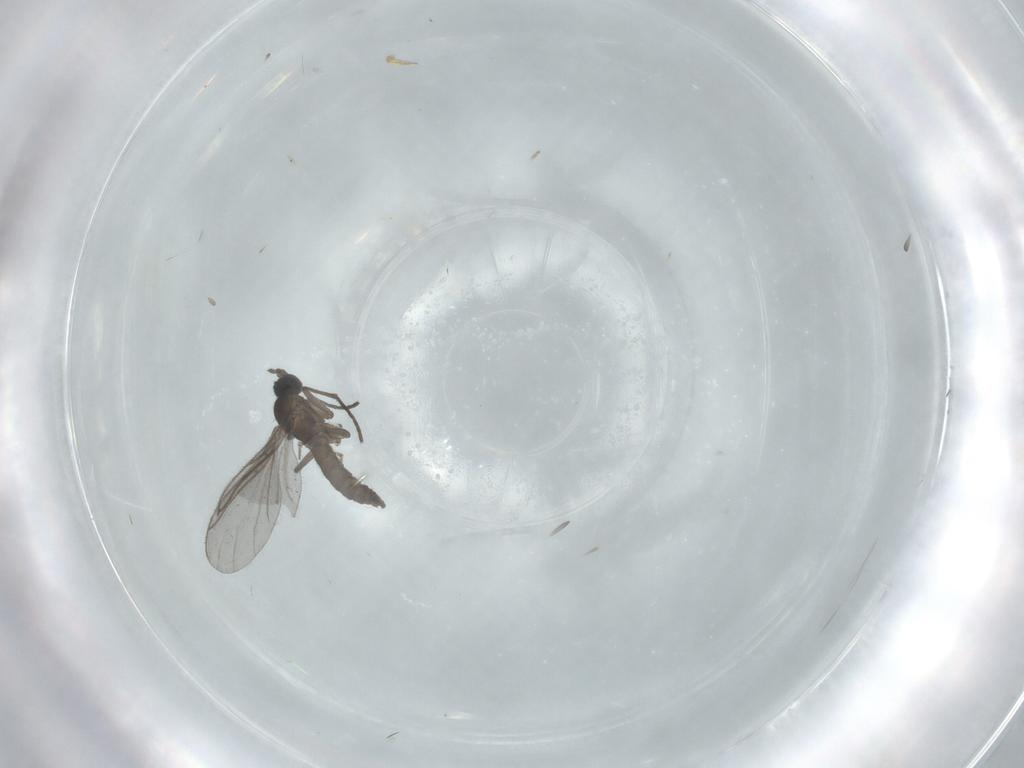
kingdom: Animalia
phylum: Arthropoda
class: Insecta
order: Diptera
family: Sciaridae
